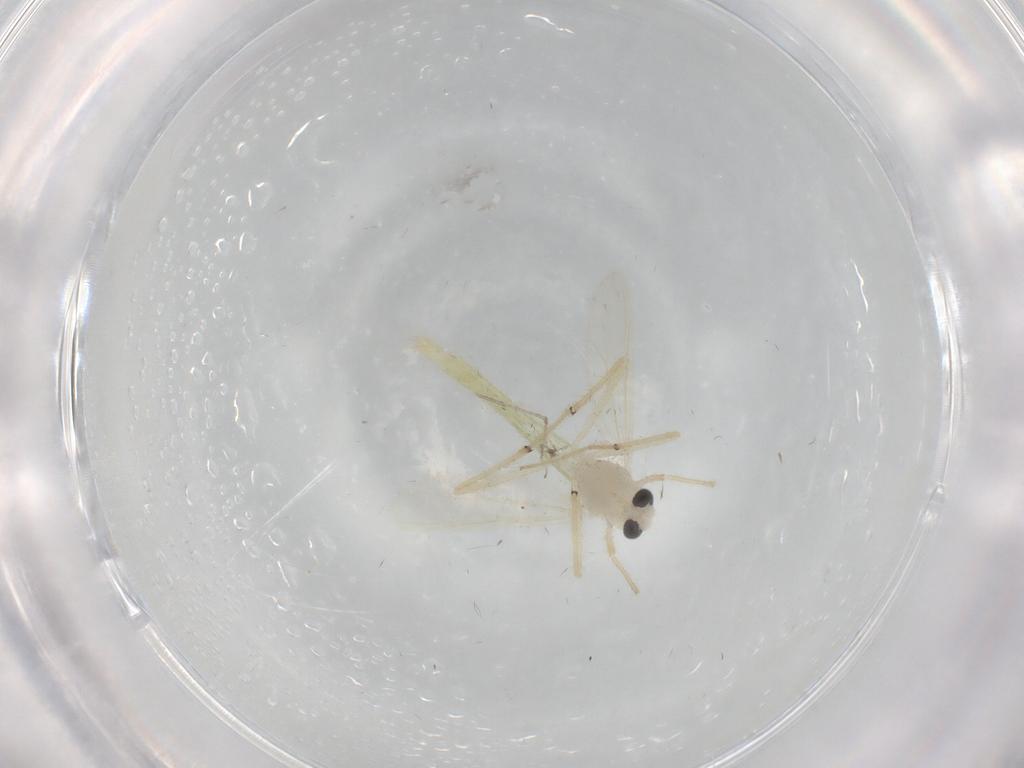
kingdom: Animalia
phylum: Arthropoda
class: Insecta
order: Diptera
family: Chironomidae
